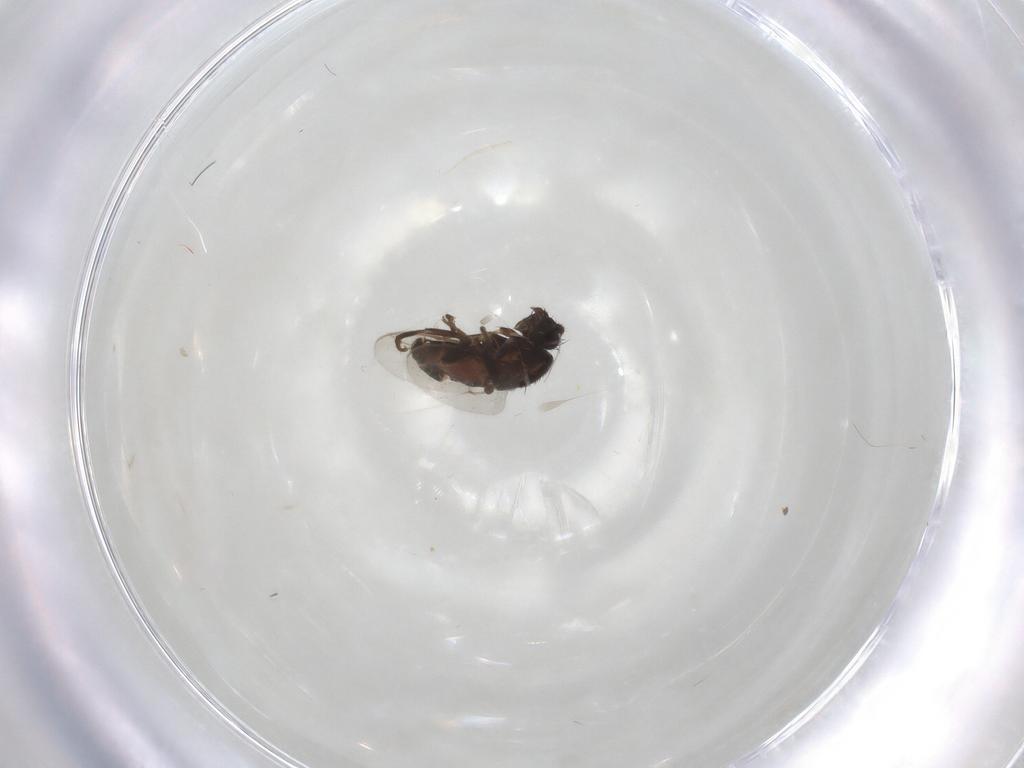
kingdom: Animalia
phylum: Arthropoda
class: Insecta
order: Diptera
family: Sphaeroceridae
